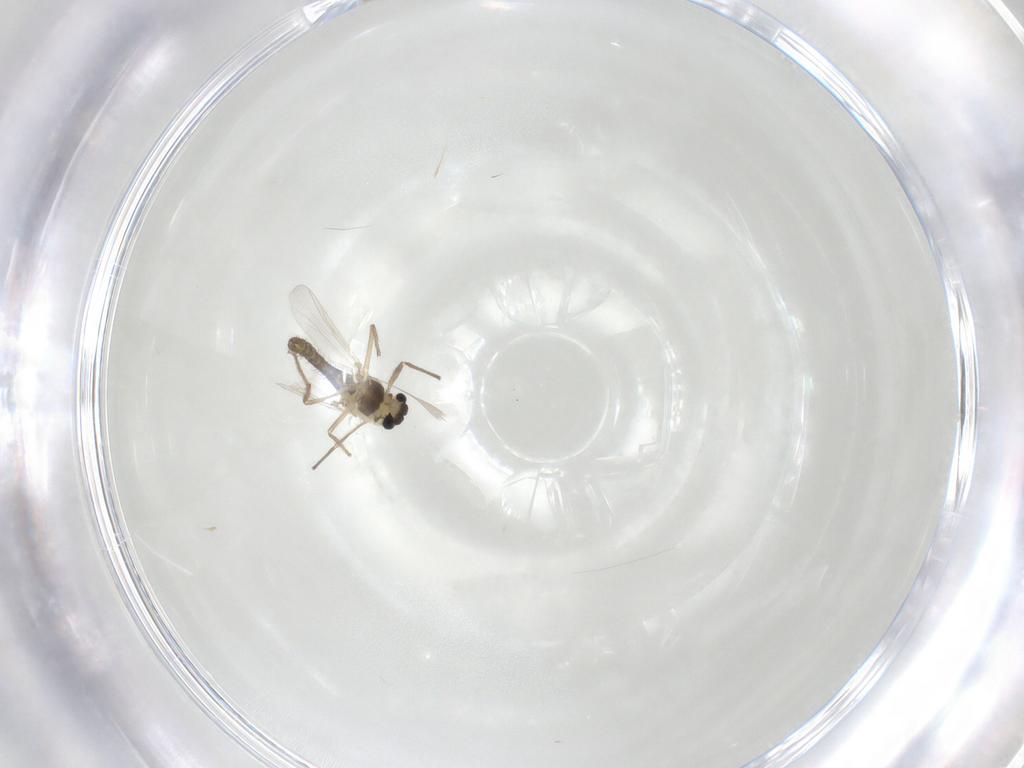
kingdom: Animalia
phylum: Arthropoda
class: Insecta
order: Diptera
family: Chironomidae
